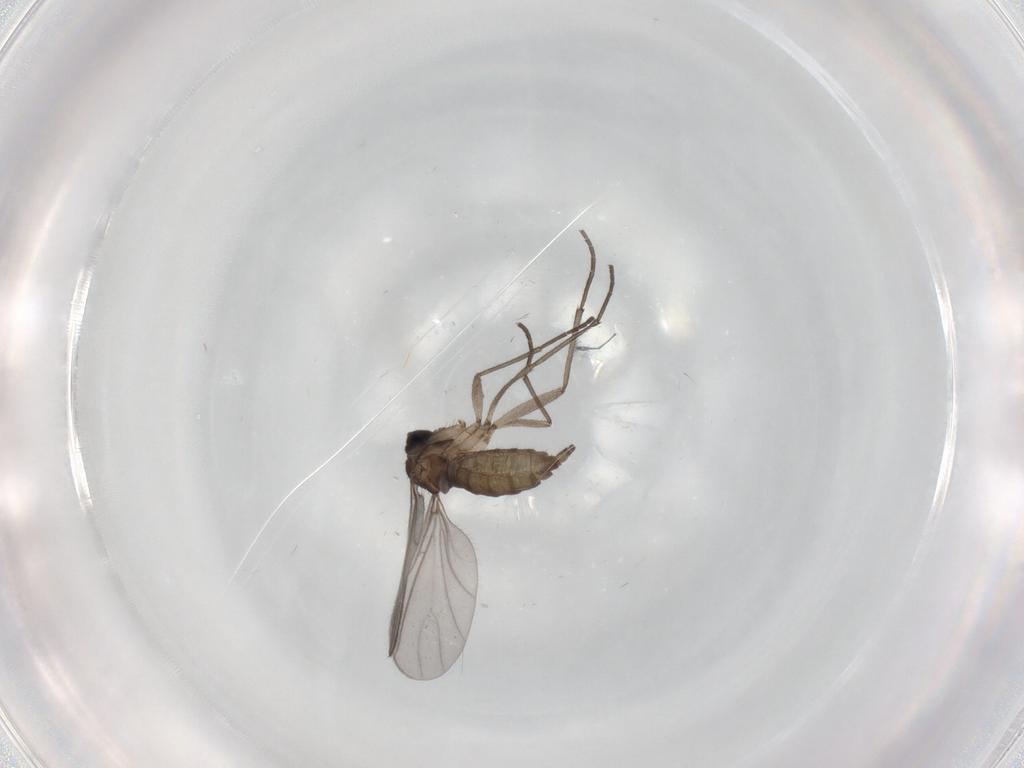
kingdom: Animalia
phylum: Arthropoda
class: Insecta
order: Diptera
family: Sciaridae
